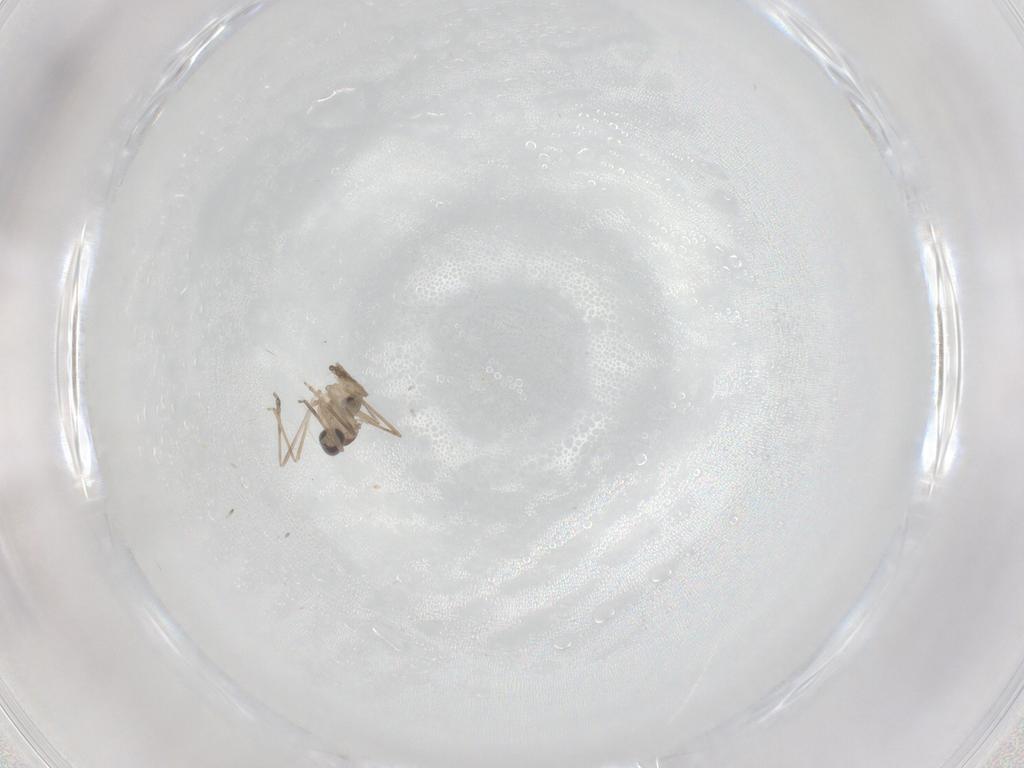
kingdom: Animalia
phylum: Arthropoda
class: Insecta
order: Diptera
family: Cecidomyiidae
